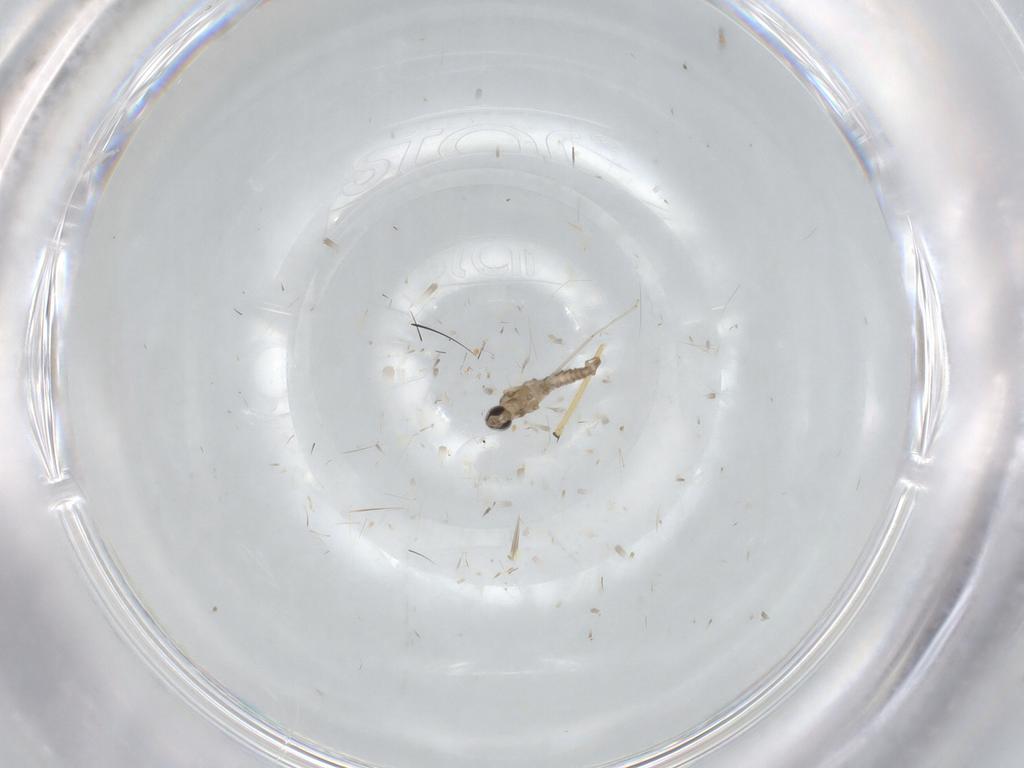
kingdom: Animalia
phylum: Arthropoda
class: Insecta
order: Diptera
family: Cecidomyiidae
